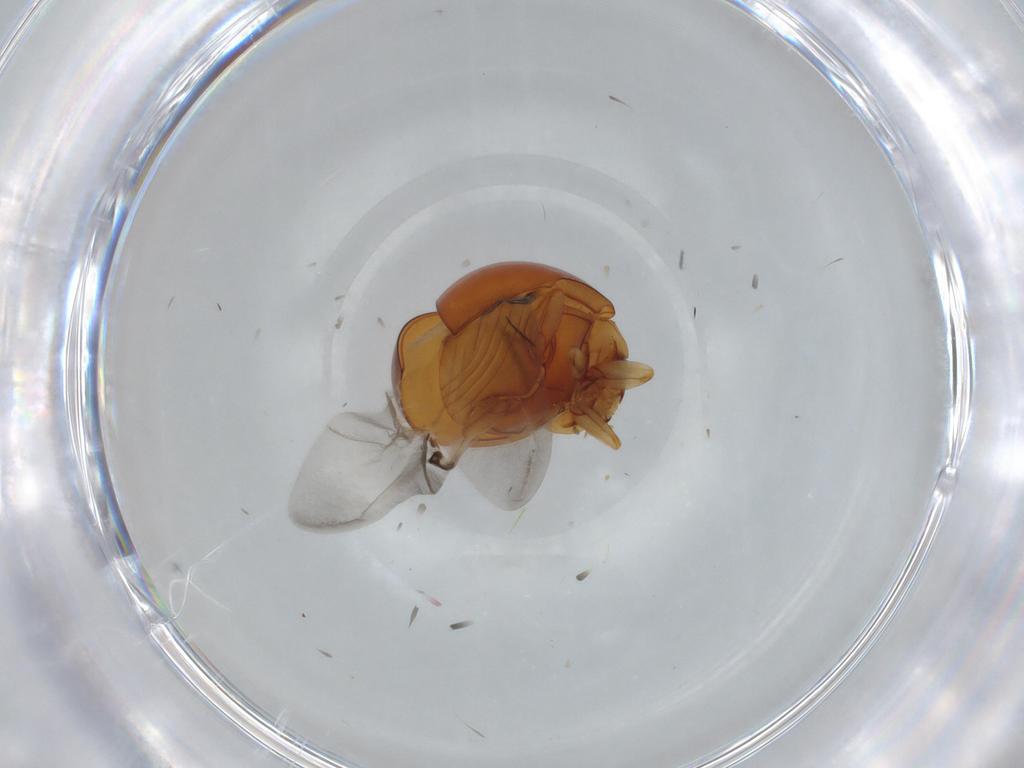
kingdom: Animalia
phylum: Arthropoda
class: Insecta
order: Coleoptera
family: Coccinellidae
